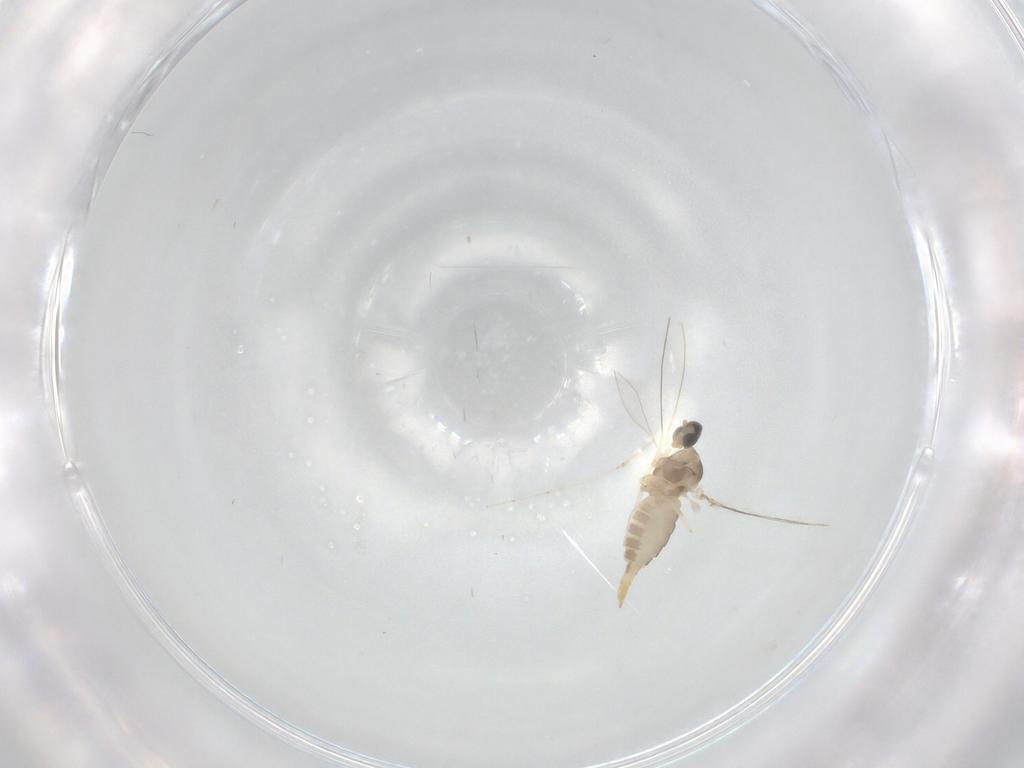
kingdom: Animalia
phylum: Arthropoda
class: Insecta
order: Diptera
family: Cecidomyiidae
